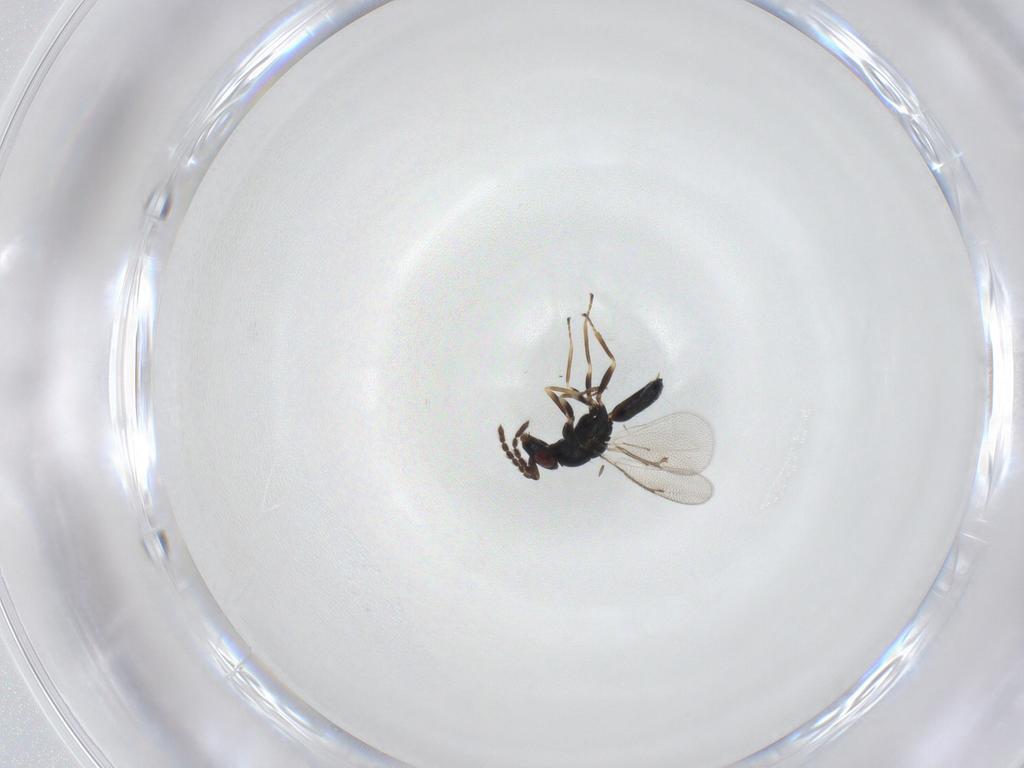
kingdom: Animalia
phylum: Arthropoda
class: Insecta
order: Hymenoptera
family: Eulophidae
